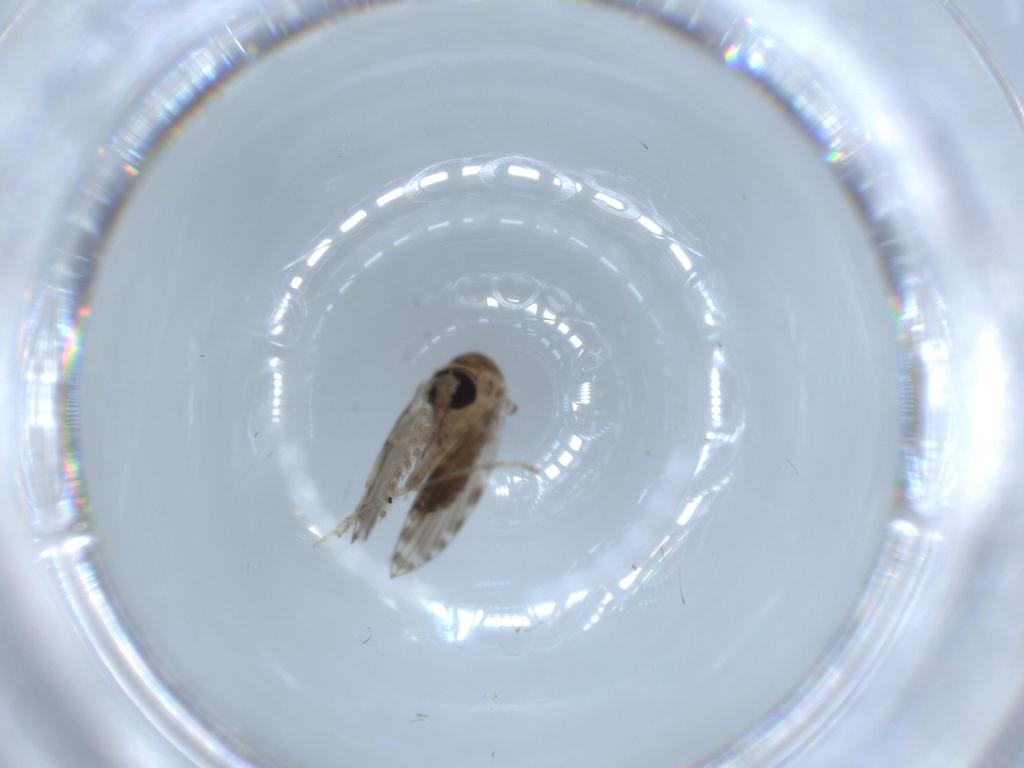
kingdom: Animalia
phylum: Arthropoda
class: Insecta
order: Diptera
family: Psychodidae
